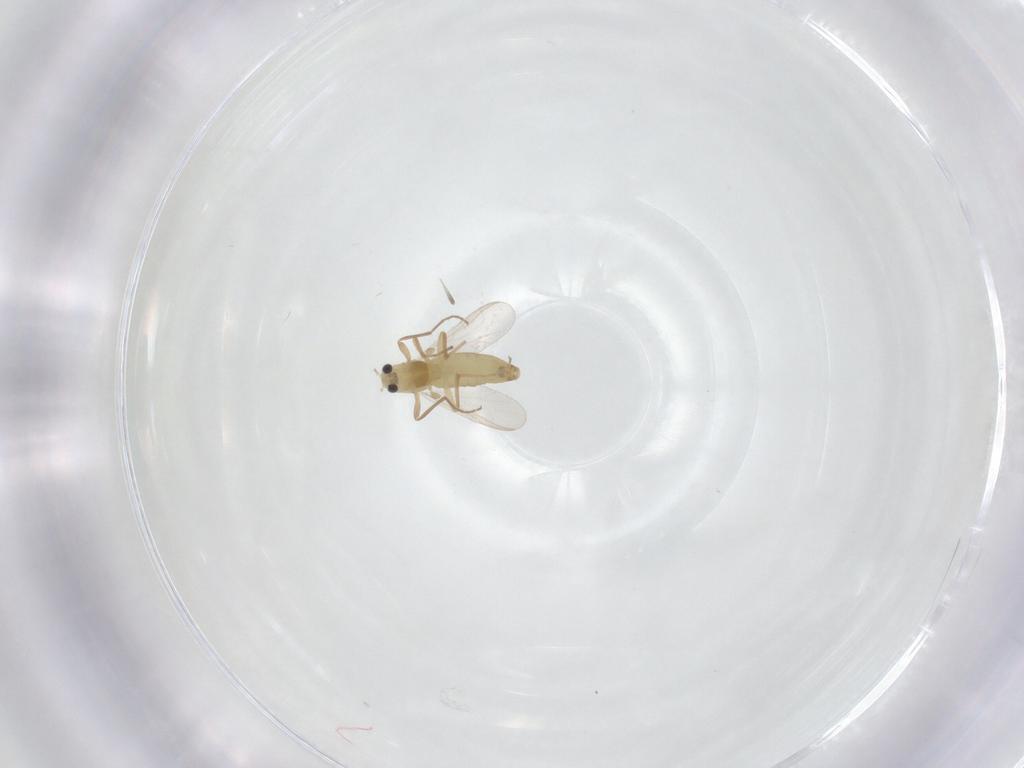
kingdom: Animalia
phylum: Arthropoda
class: Insecta
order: Diptera
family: Chironomidae
